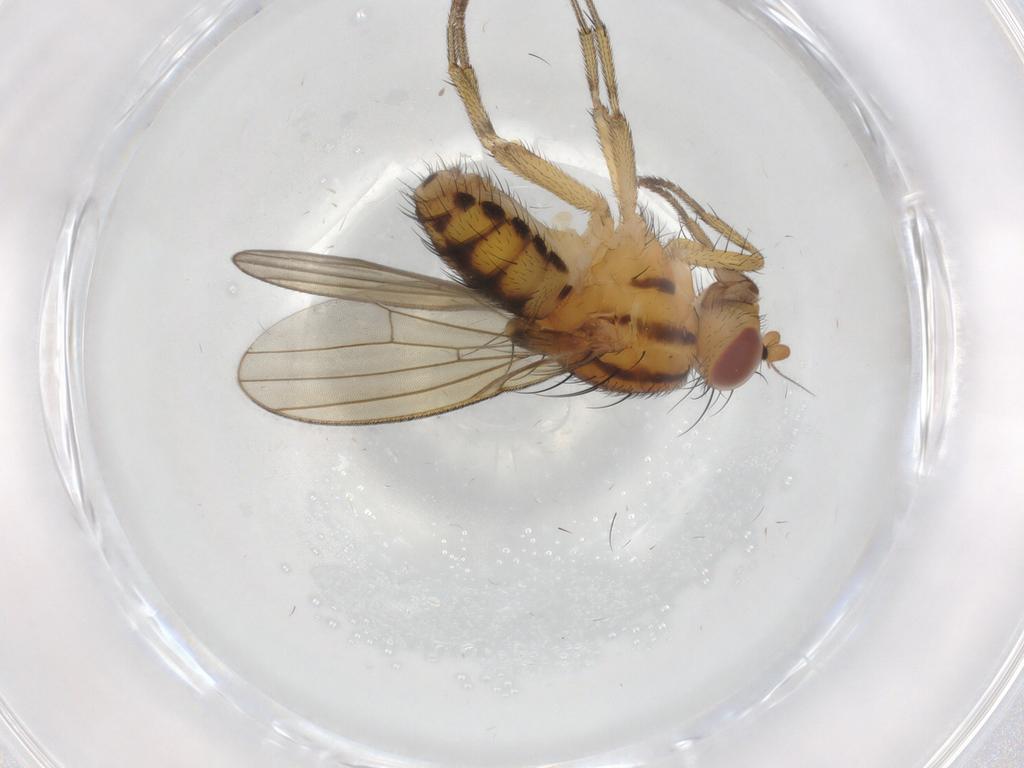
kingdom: Animalia
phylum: Arthropoda
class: Insecta
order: Diptera
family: Ceratopogonidae
